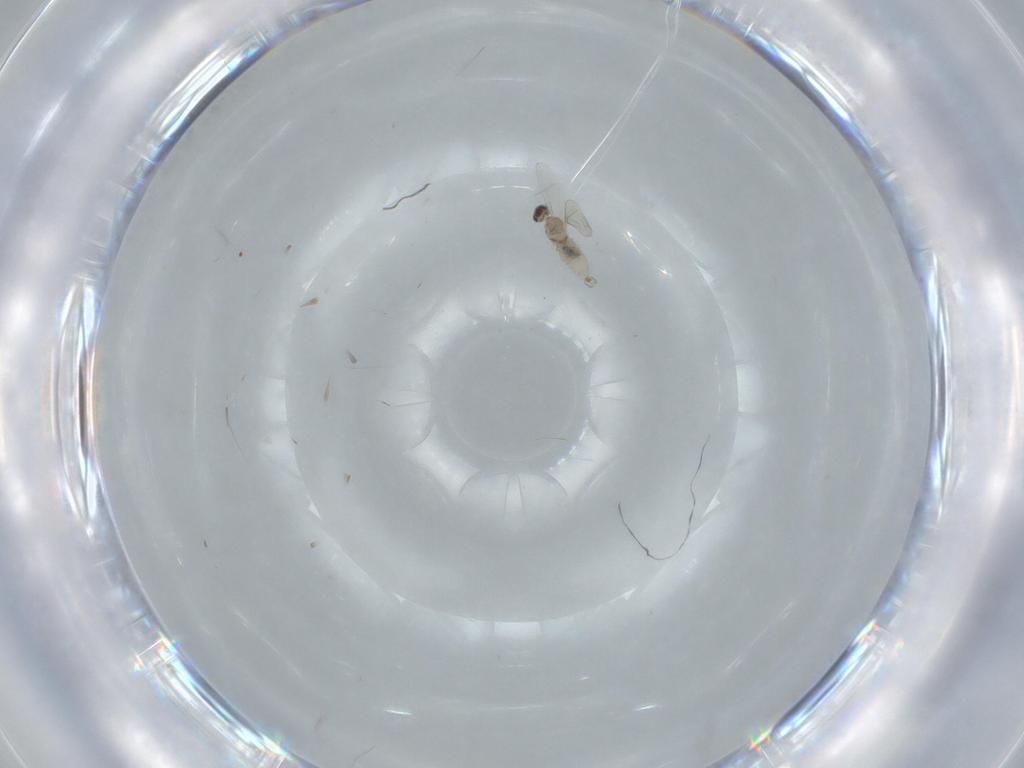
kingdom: Animalia
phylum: Arthropoda
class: Insecta
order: Diptera
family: Cecidomyiidae
